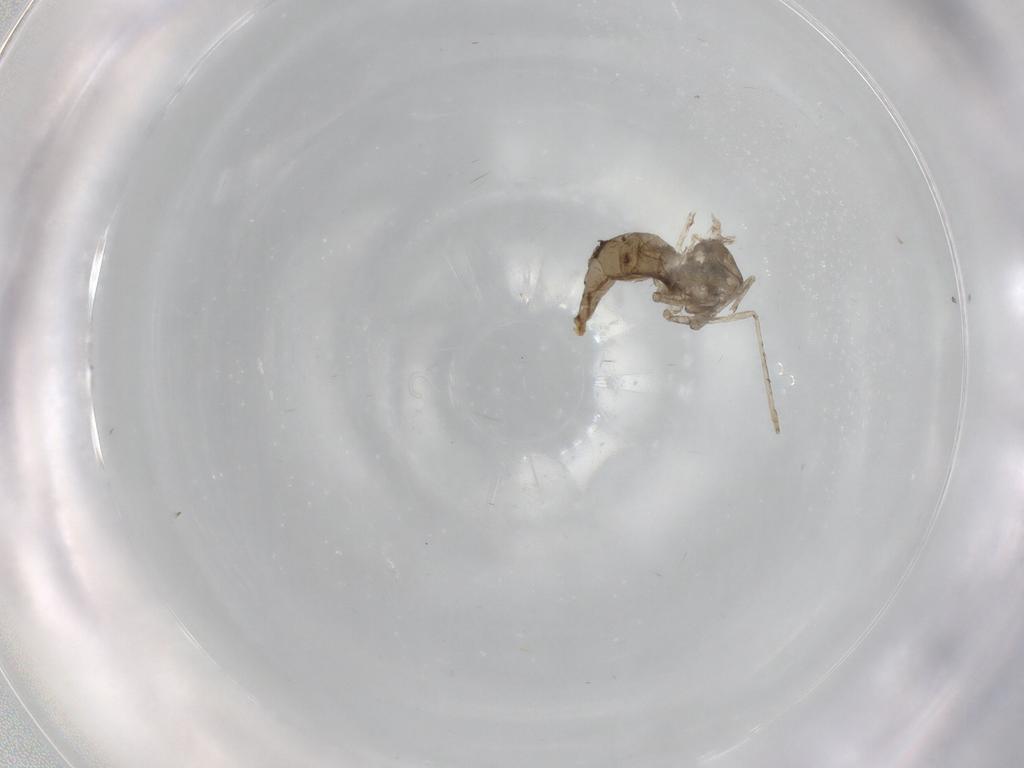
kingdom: Animalia
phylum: Arthropoda
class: Insecta
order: Diptera
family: Cecidomyiidae
